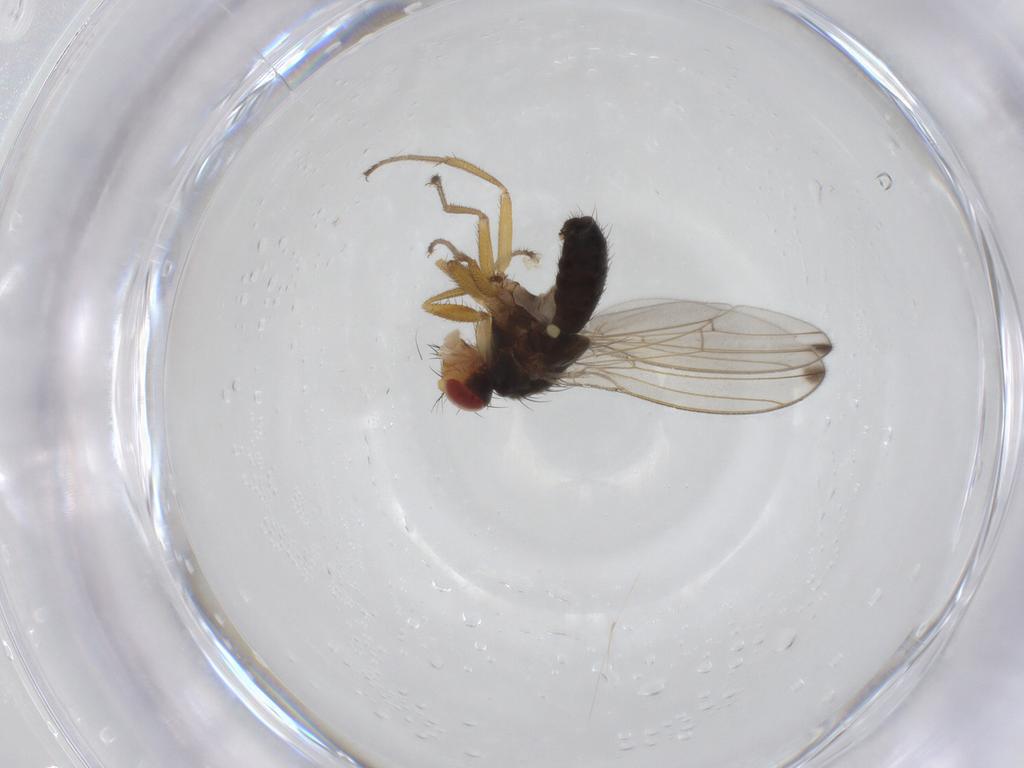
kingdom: Animalia
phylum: Arthropoda
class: Insecta
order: Diptera
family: Drosophilidae
